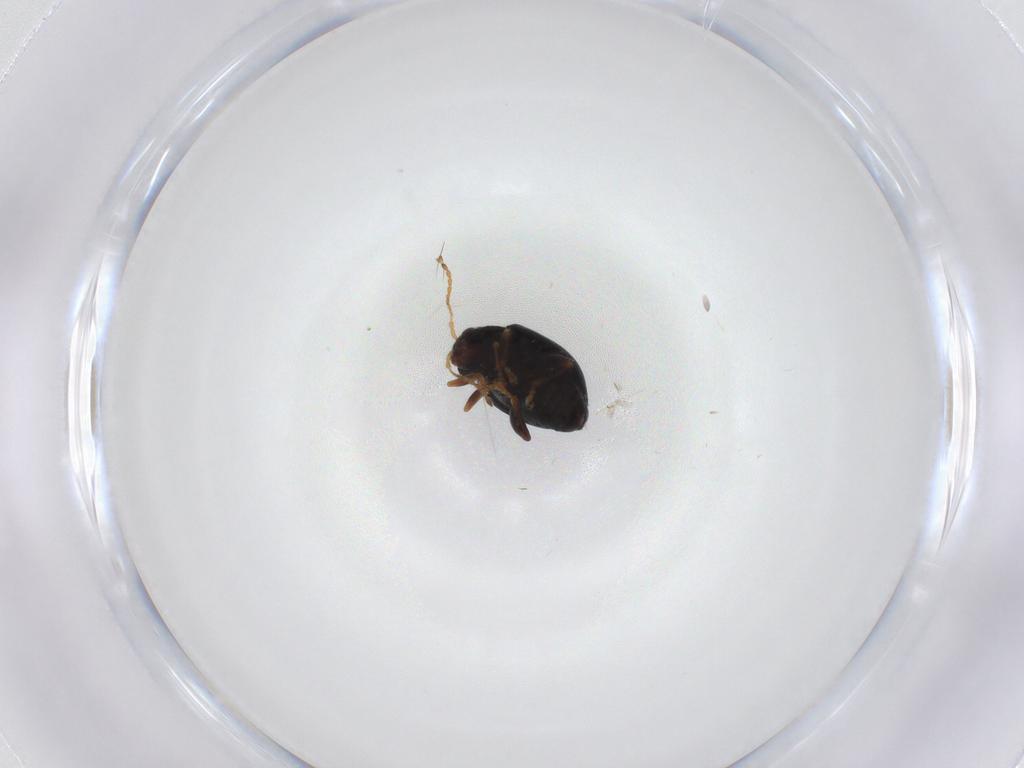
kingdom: Animalia
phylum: Arthropoda
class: Insecta
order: Coleoptera
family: Chrysomelidae
